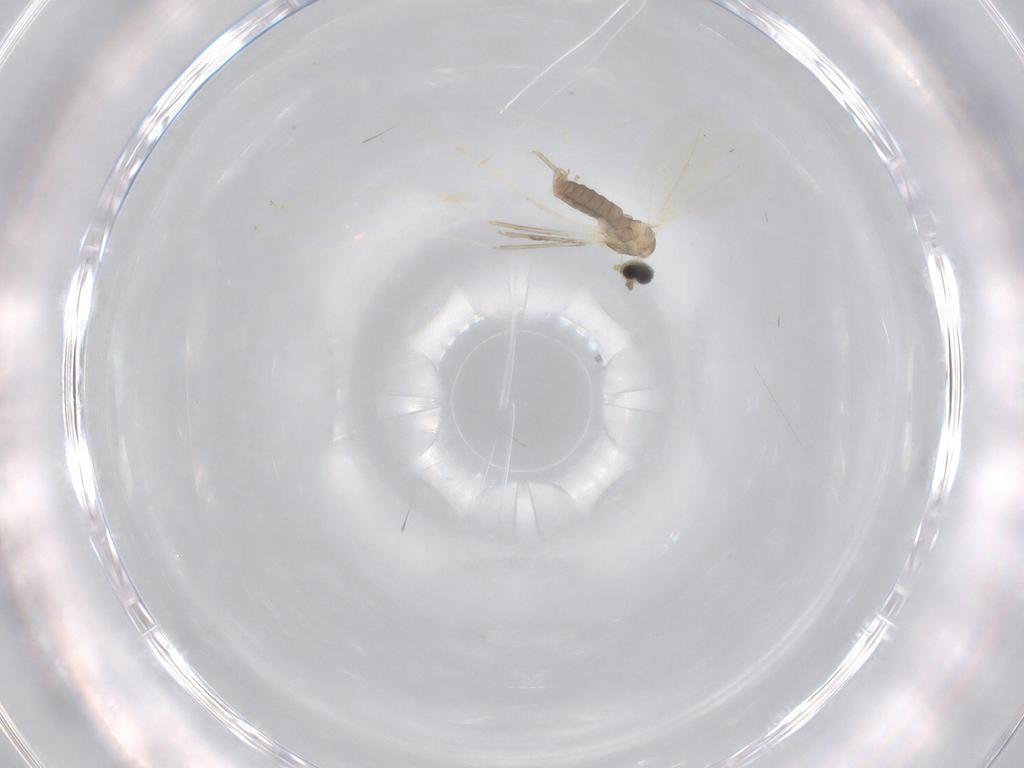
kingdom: Animalia
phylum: Arthropoda
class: Insecta
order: Diptera
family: Cecidomyiidae
